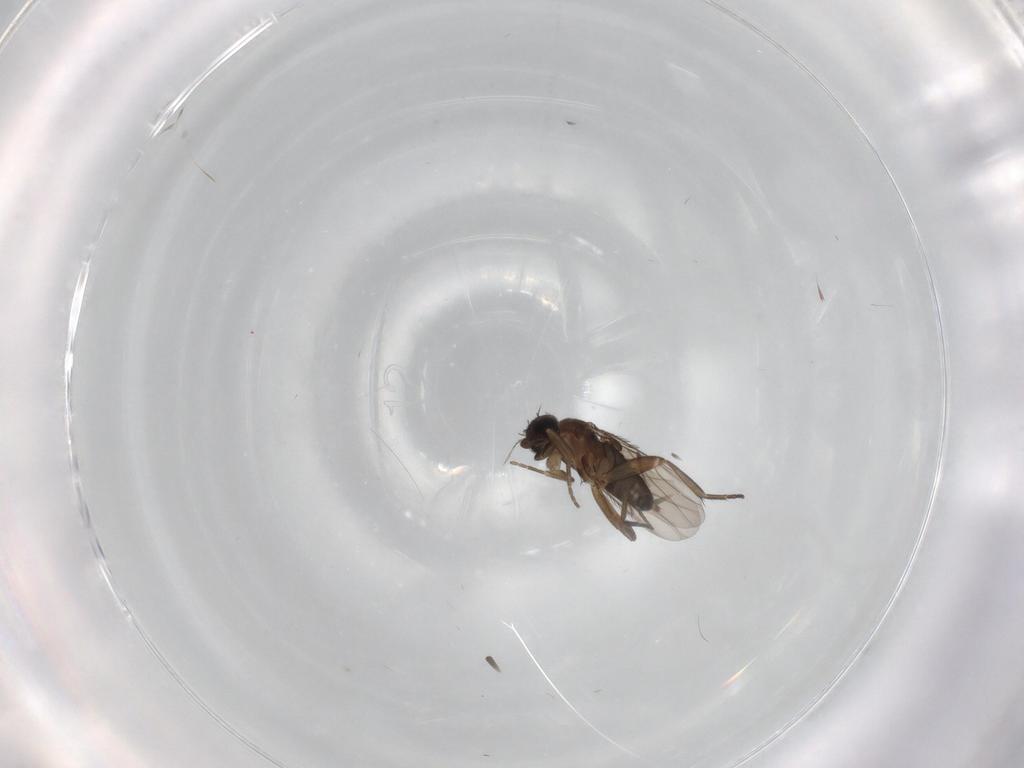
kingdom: Animalia
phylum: Arthropoda
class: Insecta
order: Diptera
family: Phoridae
